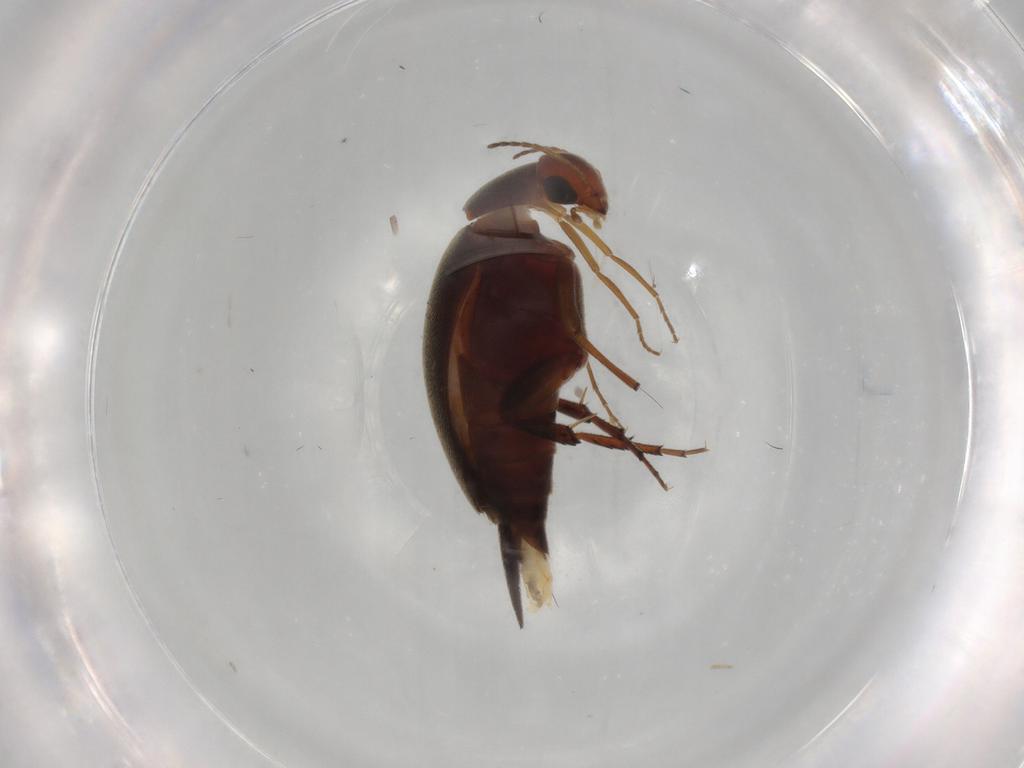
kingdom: Animalia
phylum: Arthropoda
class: Insecta
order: Coleoptera
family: Mordellidae
